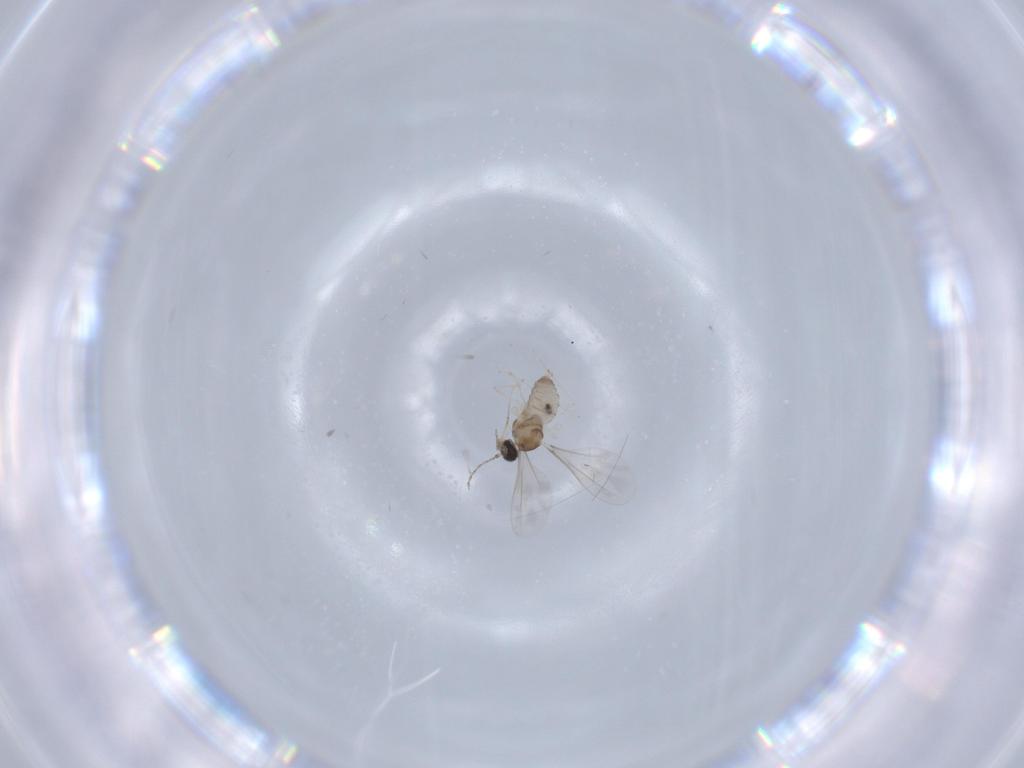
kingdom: Animalia
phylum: Arthropoda
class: Insecta
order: Diptera
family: Cecidomyiidae
